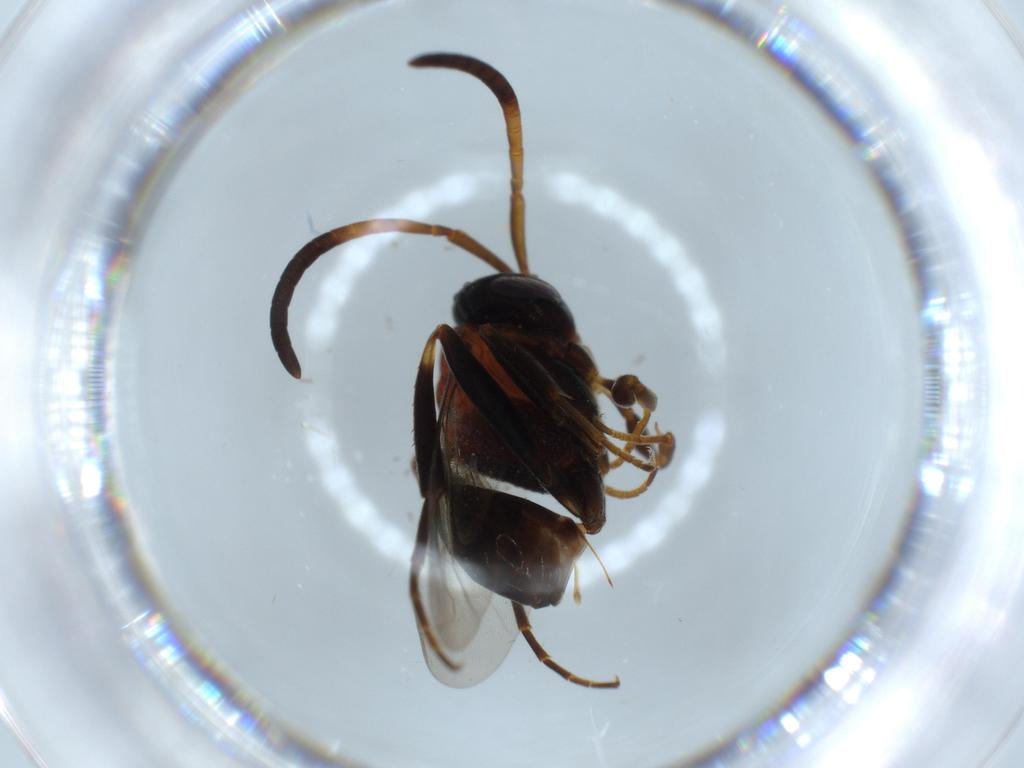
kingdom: Animalia
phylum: Arthropoda
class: Insecta
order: Hymenoptera
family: Evaniidae
